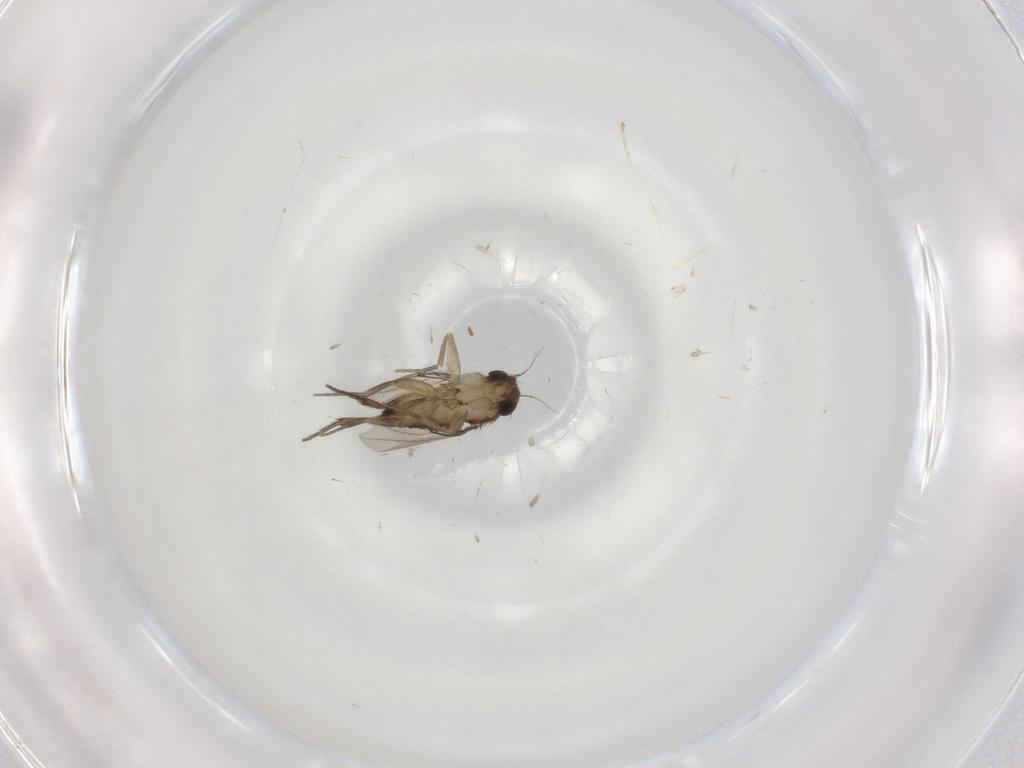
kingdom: Animalia
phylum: Arthropoda
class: Insecta
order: Diptera
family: Phoridae
